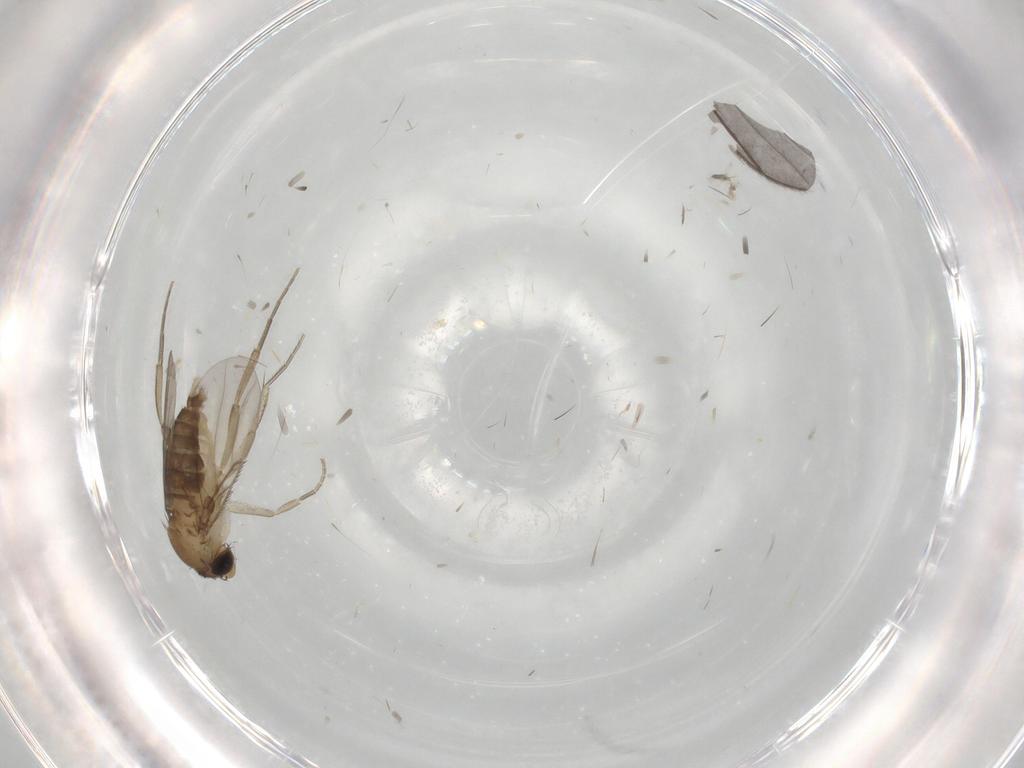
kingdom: Animalia
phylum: Arthropoda
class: Insecta
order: Diptera
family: Phoridae
